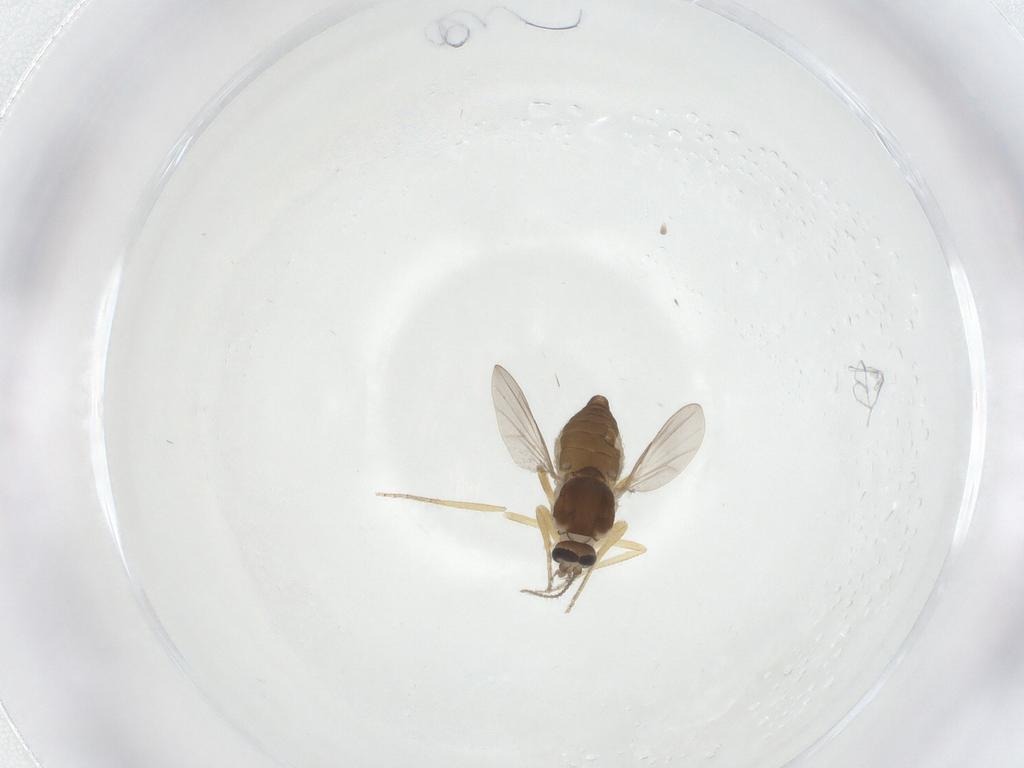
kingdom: Animalia
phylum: Arthropoda
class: Insecta
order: Diptera
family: Ceratopogonidae
